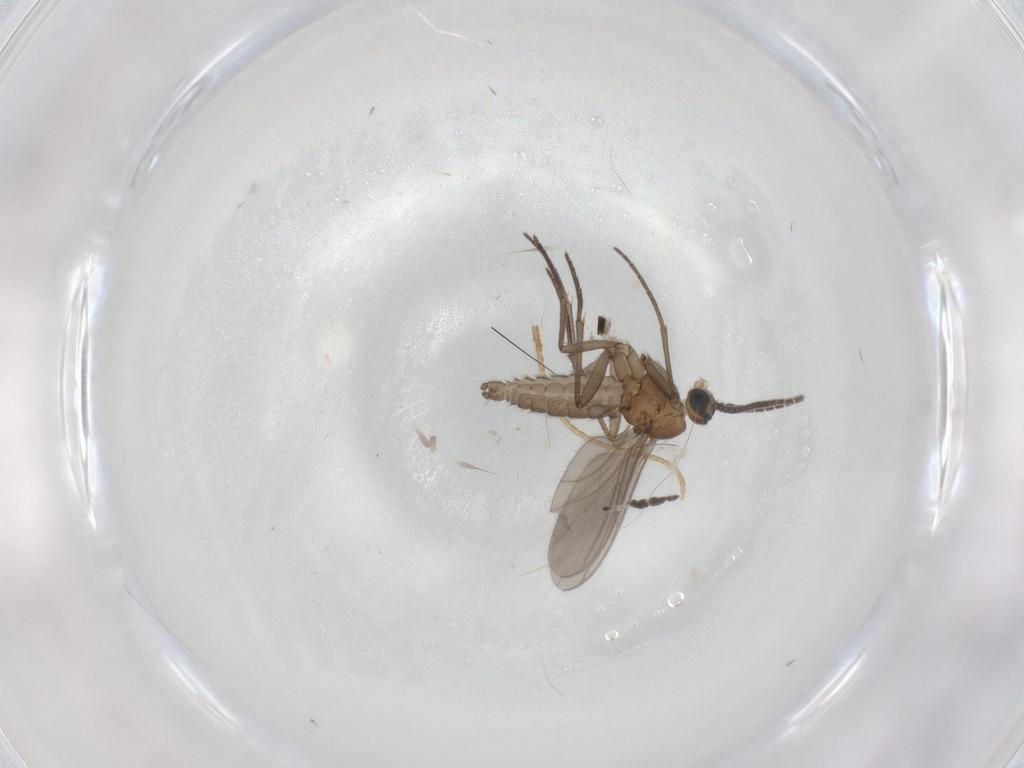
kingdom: Animalia
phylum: Arthropoda
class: Insecta
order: Diptera
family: Sciaridae
